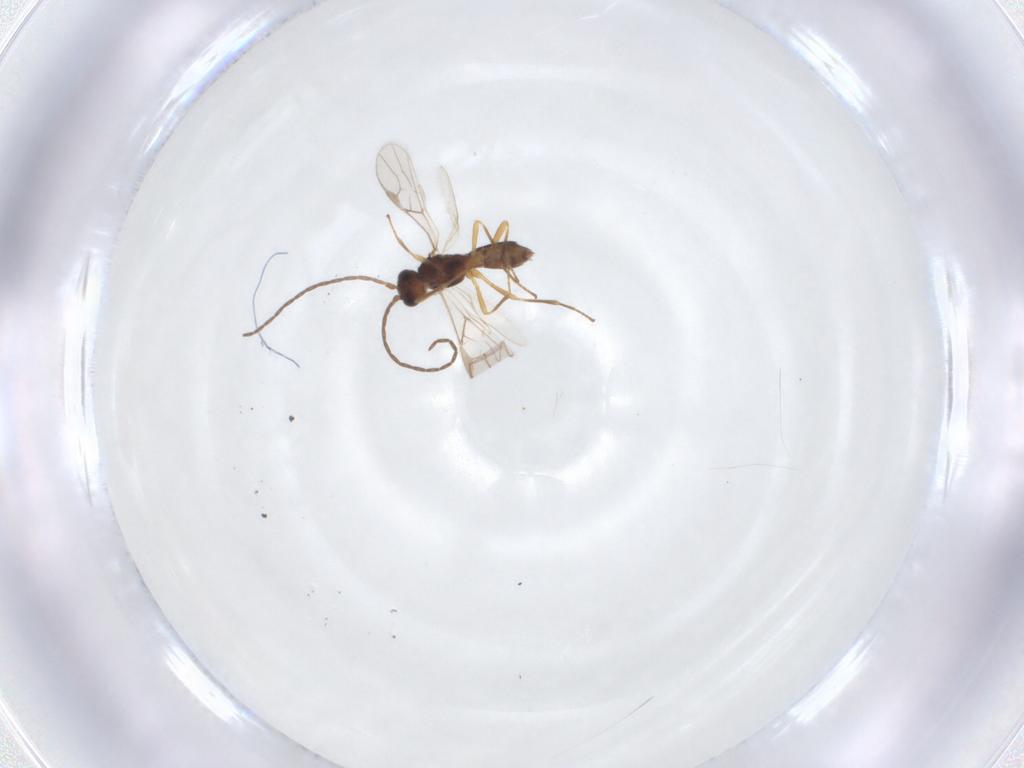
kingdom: Animalia
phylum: Arthropoda
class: Insecta
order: Hymenoptera
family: Braconidae
